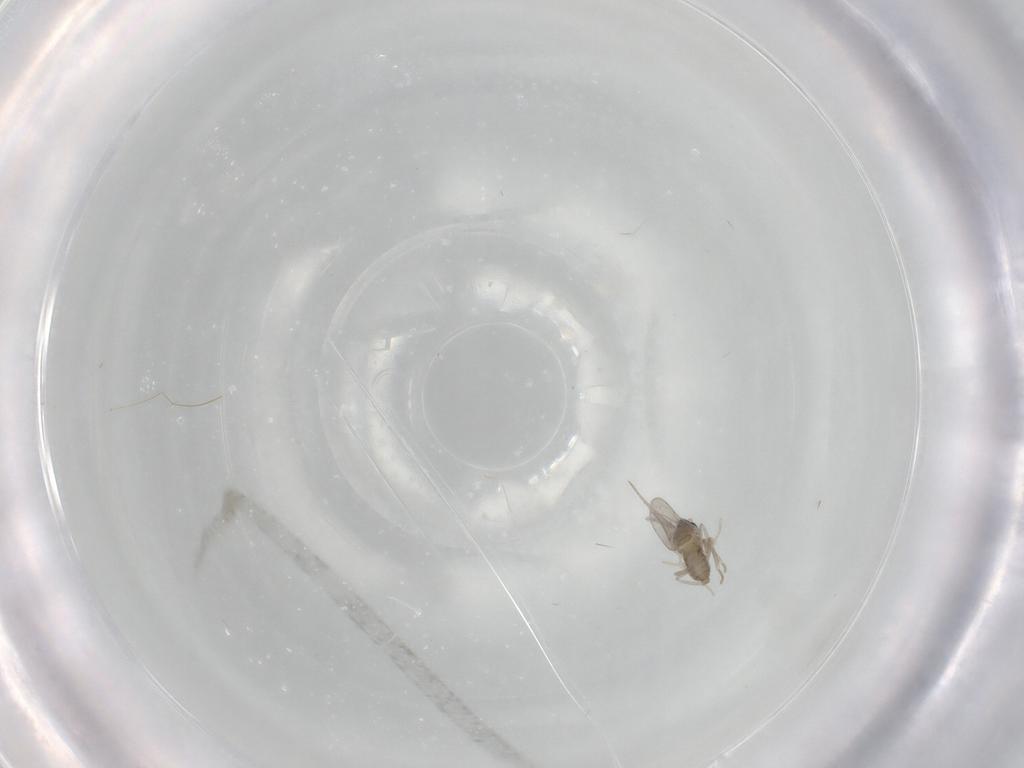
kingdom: Animalia
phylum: Arthropoda
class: Insecta
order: Diptera
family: Cecidomyiidae
